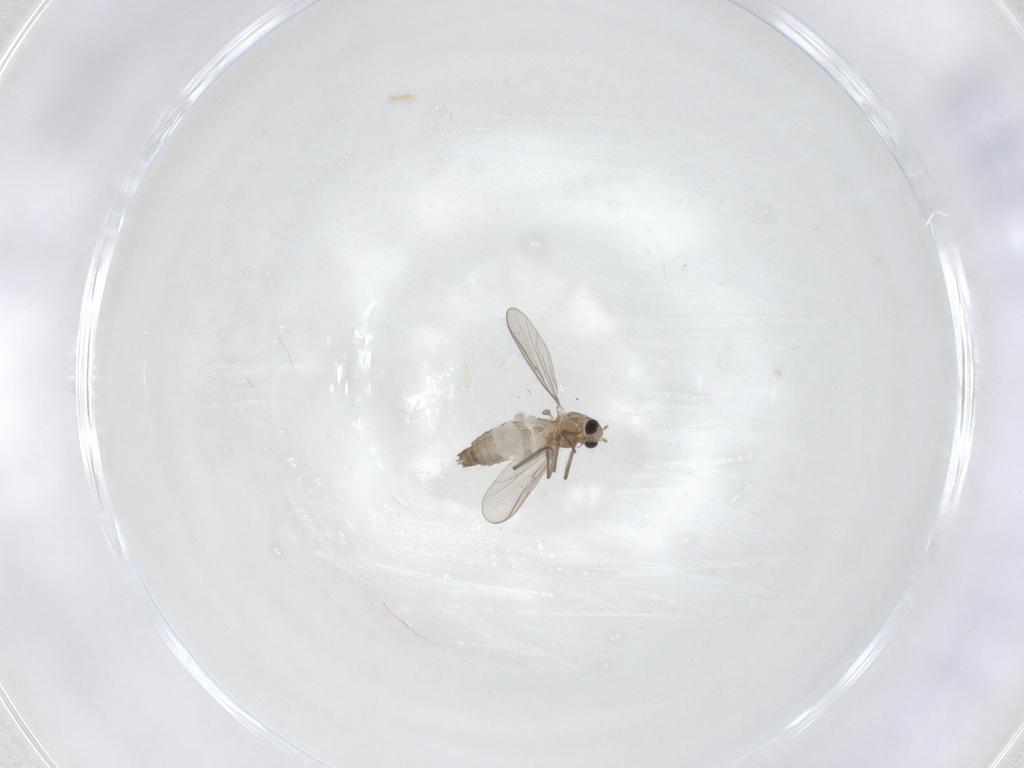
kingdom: Animalia
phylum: Arthropoda
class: Insecta
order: Diptera
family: Chironomidae
